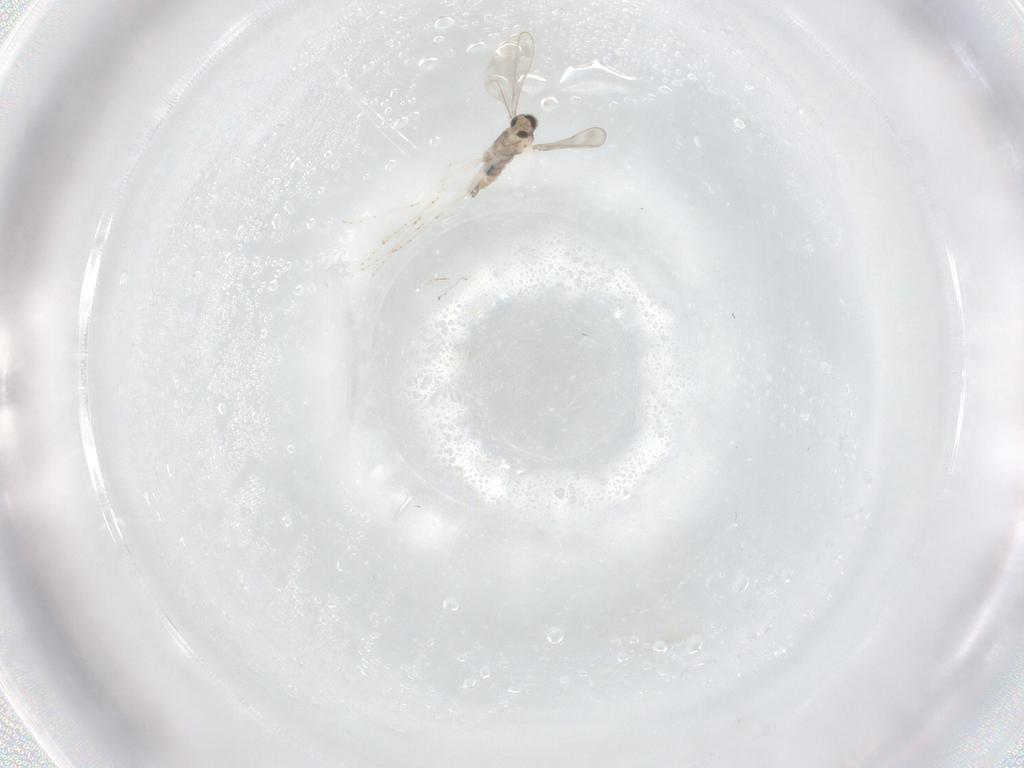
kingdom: Animalia
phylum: Arthropoda
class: Insecta
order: Diptera
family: Cecidomyiidae
